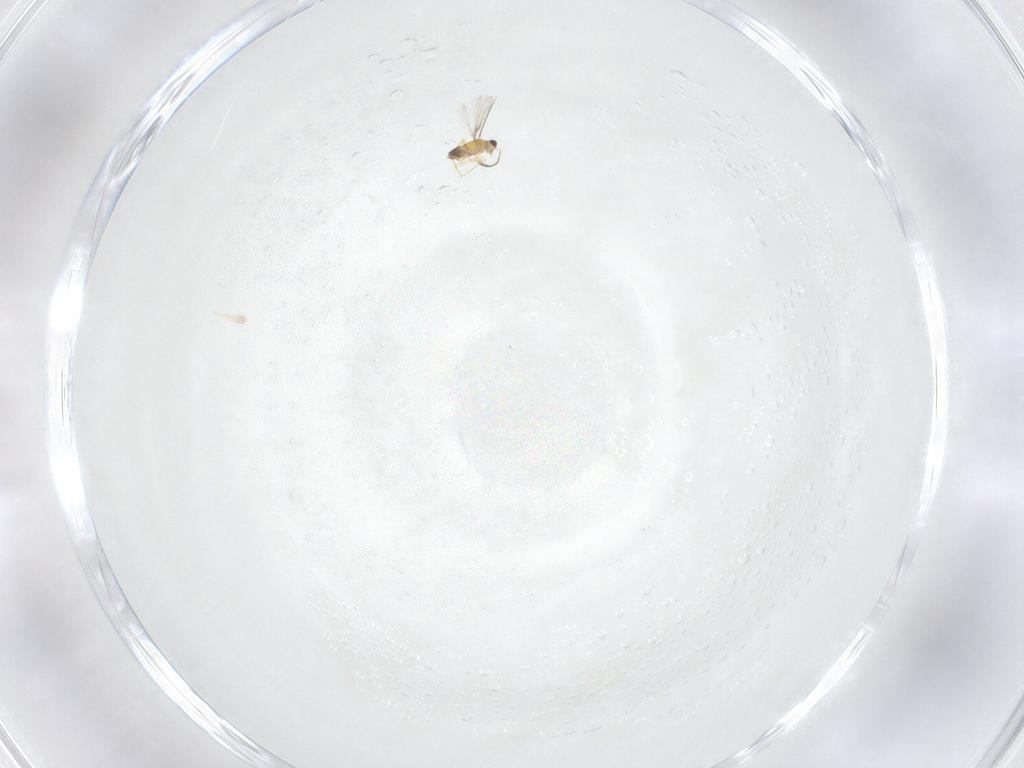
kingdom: Animalia
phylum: Arthropoda
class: Insecta
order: Hymenoptera
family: Mymaridae
